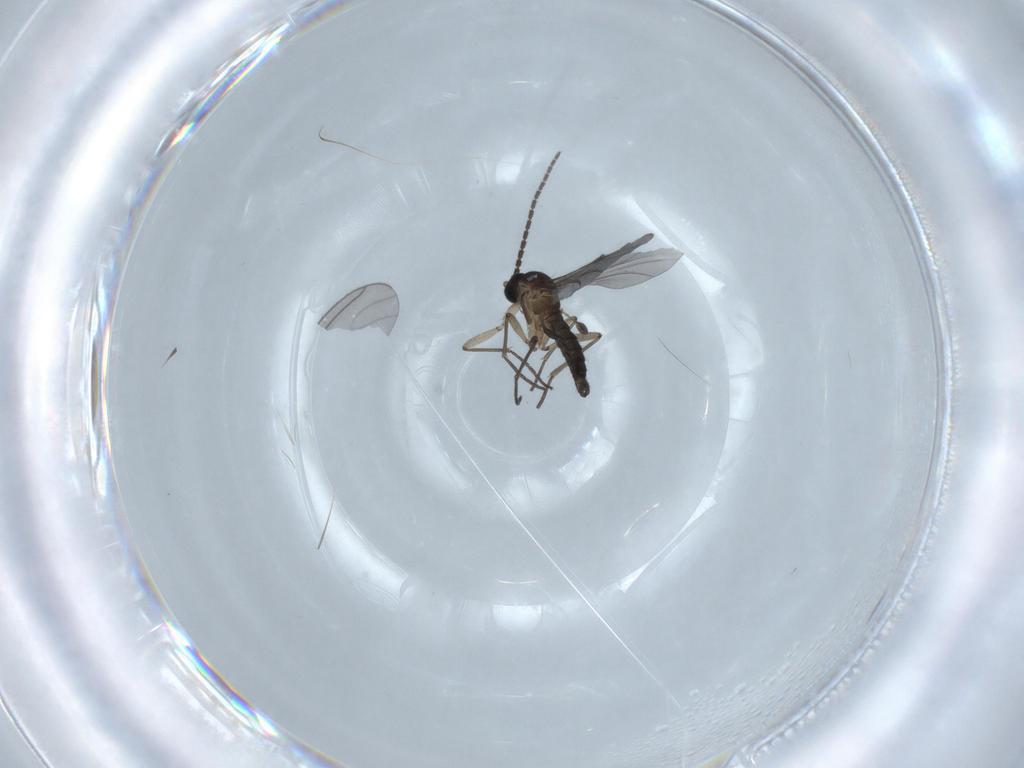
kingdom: Animalia
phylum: Arthropoda
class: Insecta
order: Diptera
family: Sciaridae
